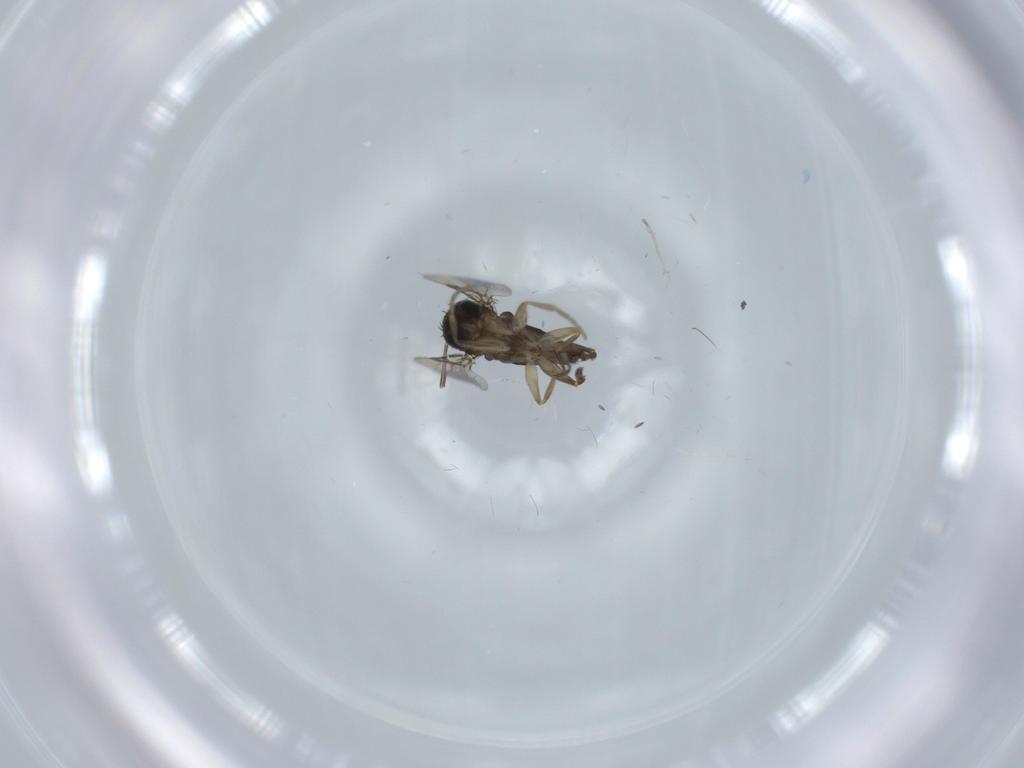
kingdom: Animalia
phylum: Arthropoda
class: Insecta
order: Diptera
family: Phoridae
